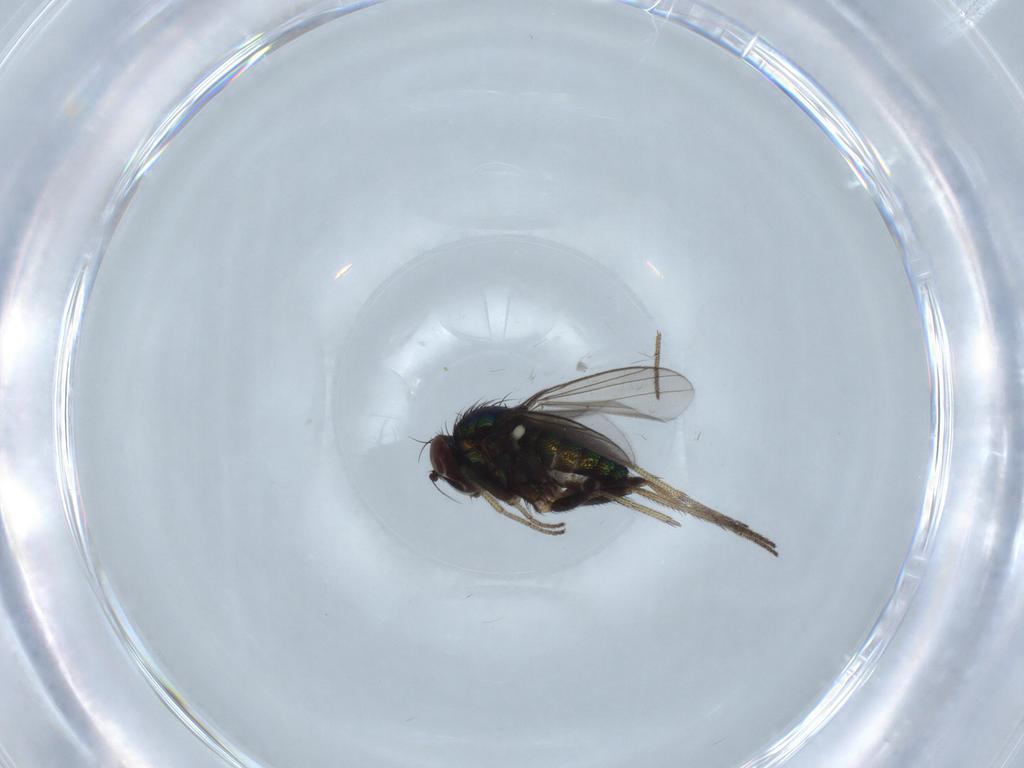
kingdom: Animalia
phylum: Arthropoda
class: Insecta
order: Diptera
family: Dolichopodidae
